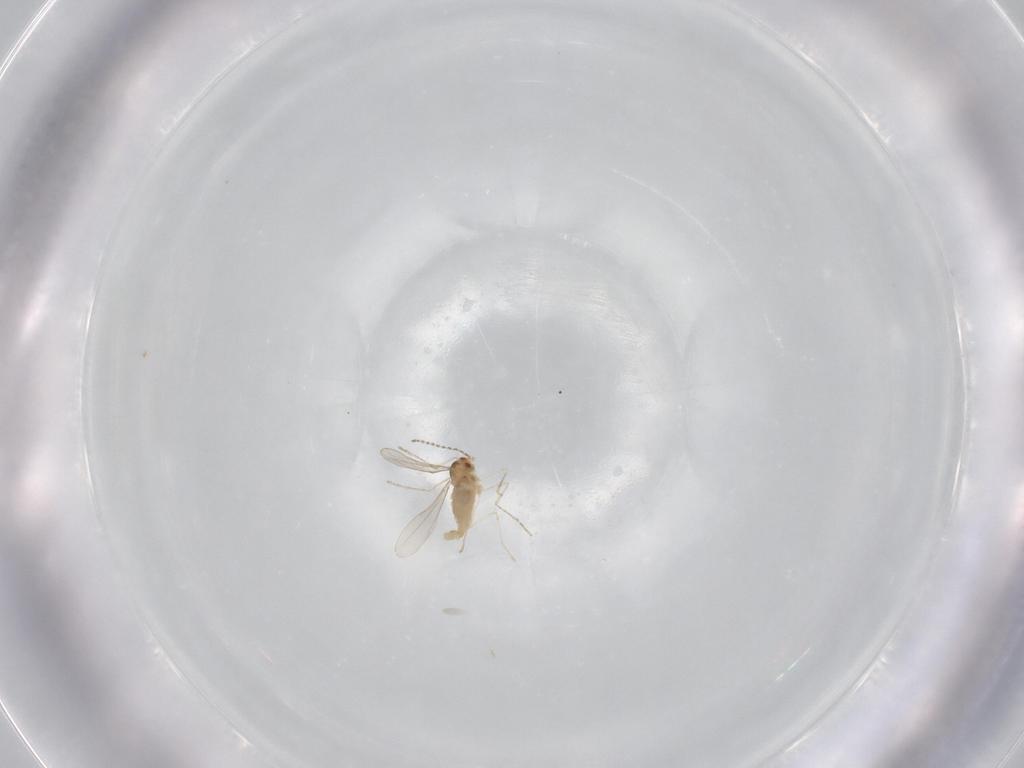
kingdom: Animalia
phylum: Arthropoda
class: Insecta
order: Diptera
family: Cecidomyiidae
